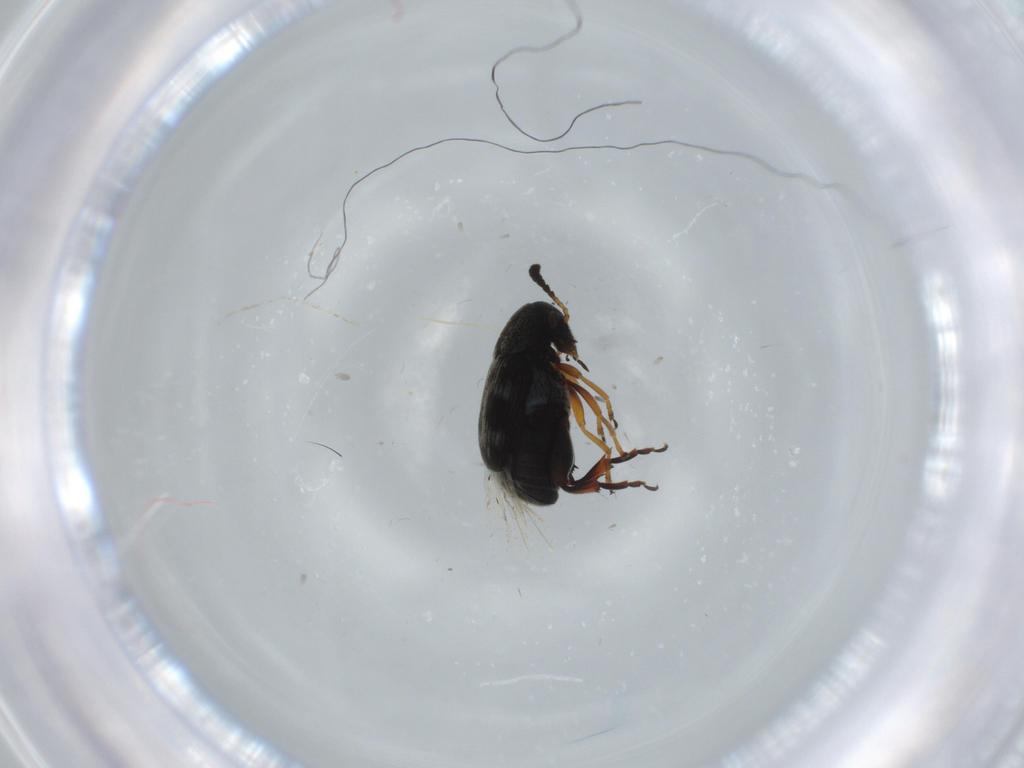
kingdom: Animalia
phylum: Arthropoda
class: Insecta
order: Coleoptera
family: Chrysomelidae
